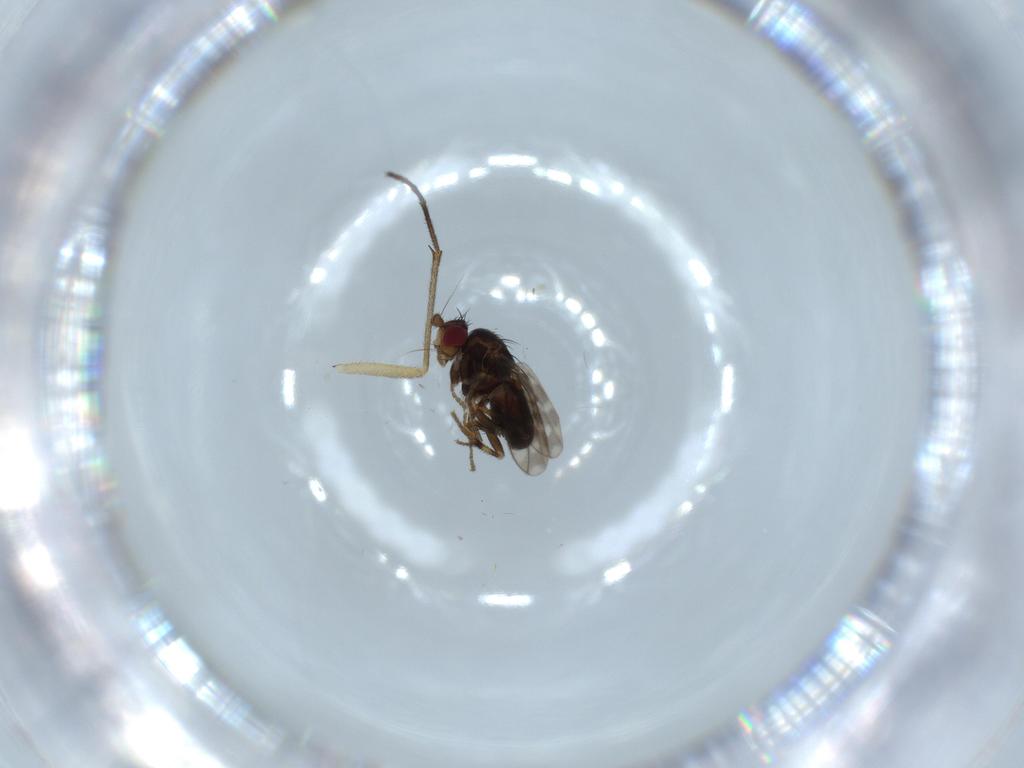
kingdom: Animalia
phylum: Arthropoda
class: Insecta
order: Diptera
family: Sphaeroceridae
